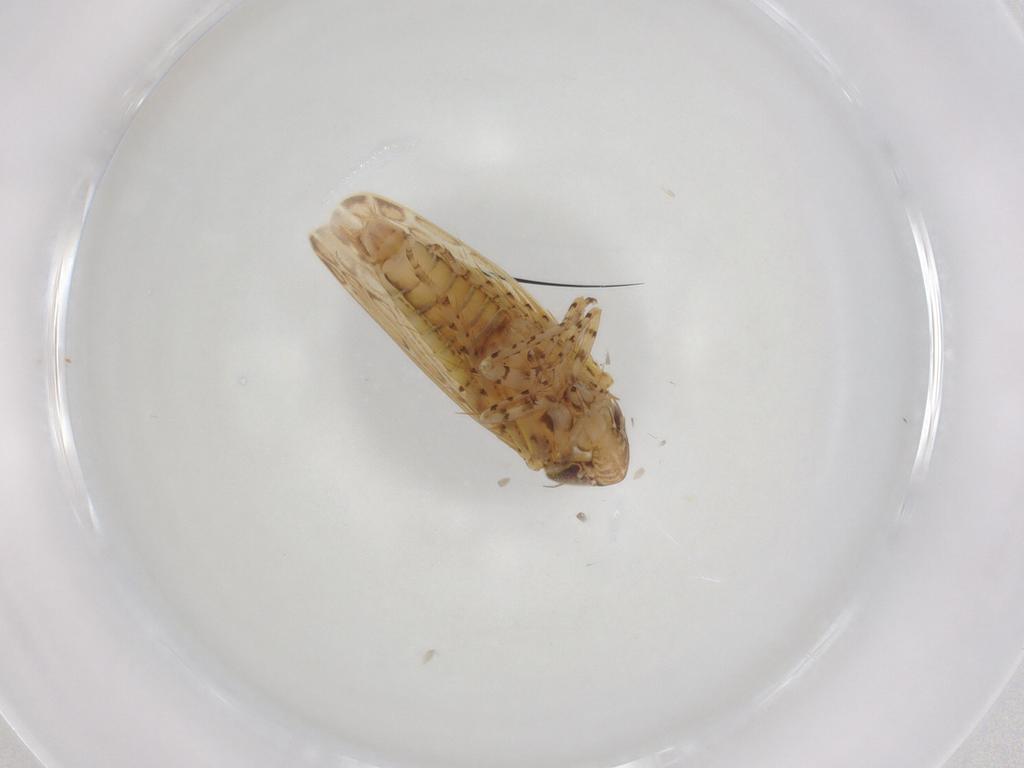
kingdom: Animalia
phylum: Arthropoda
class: Insecta
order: Hemiptera
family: Cicadellidae
